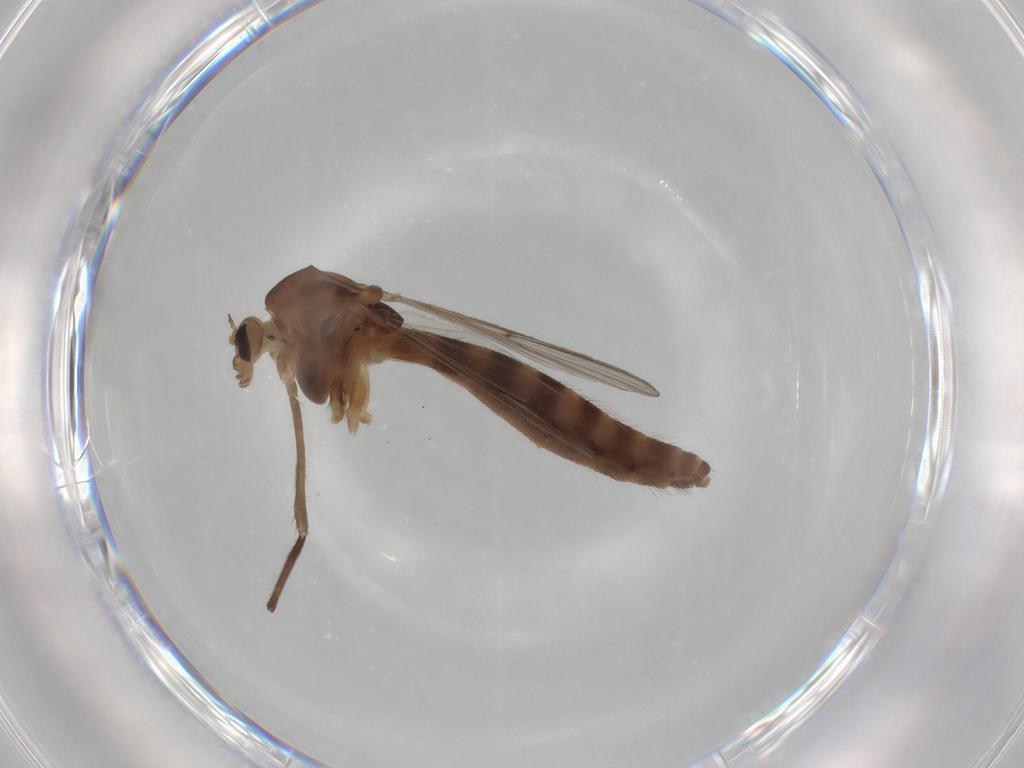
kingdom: Animalia
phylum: Arthropoda
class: Insecta
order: Diptera
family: Chironomidae
